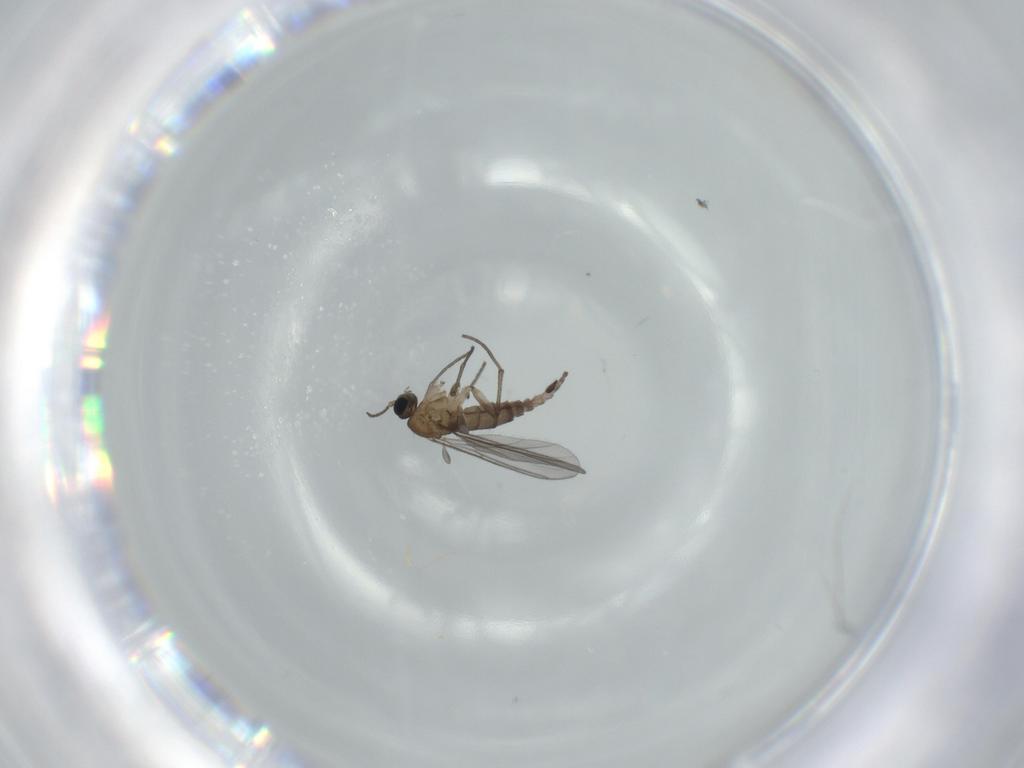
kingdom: Animalia
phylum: Arthropoda
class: Insecta
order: Diptera
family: Sciaridae
